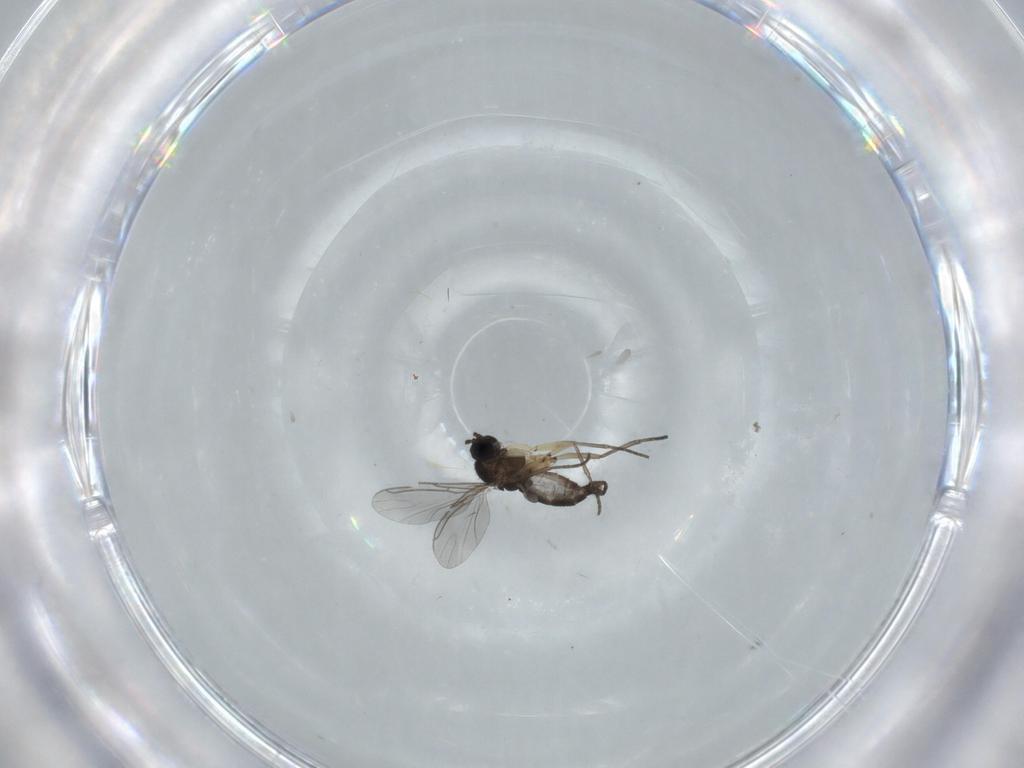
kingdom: Animalia
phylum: Arthropoda
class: Insecta
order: Diptera
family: Sciaridae
